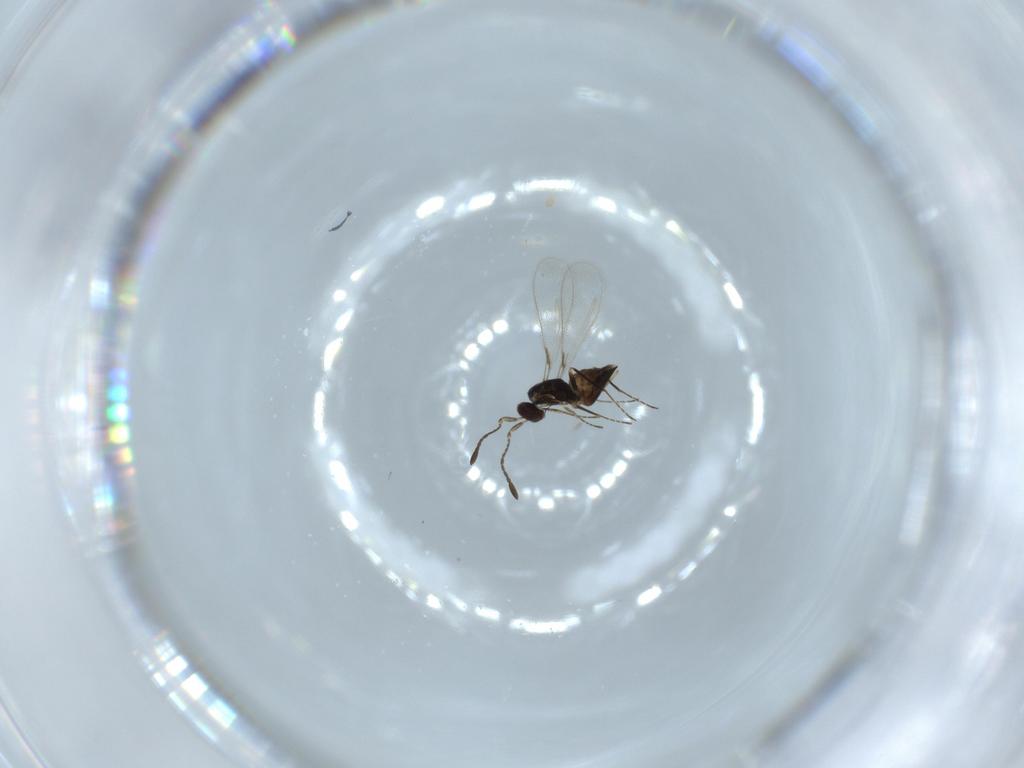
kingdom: Animalia
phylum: Arthropoda
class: Insecta
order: Hymenoptera
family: Mymaridae
